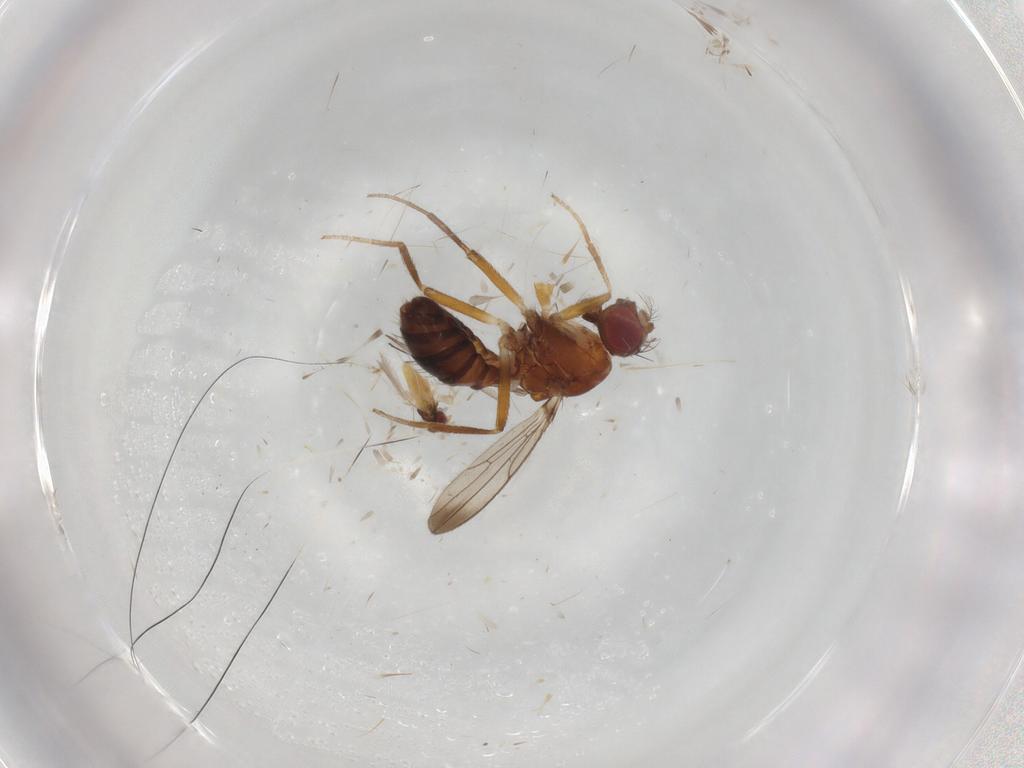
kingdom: Animalia
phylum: Arthropoda
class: Insecta
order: Diptera
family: Drosophilidae
